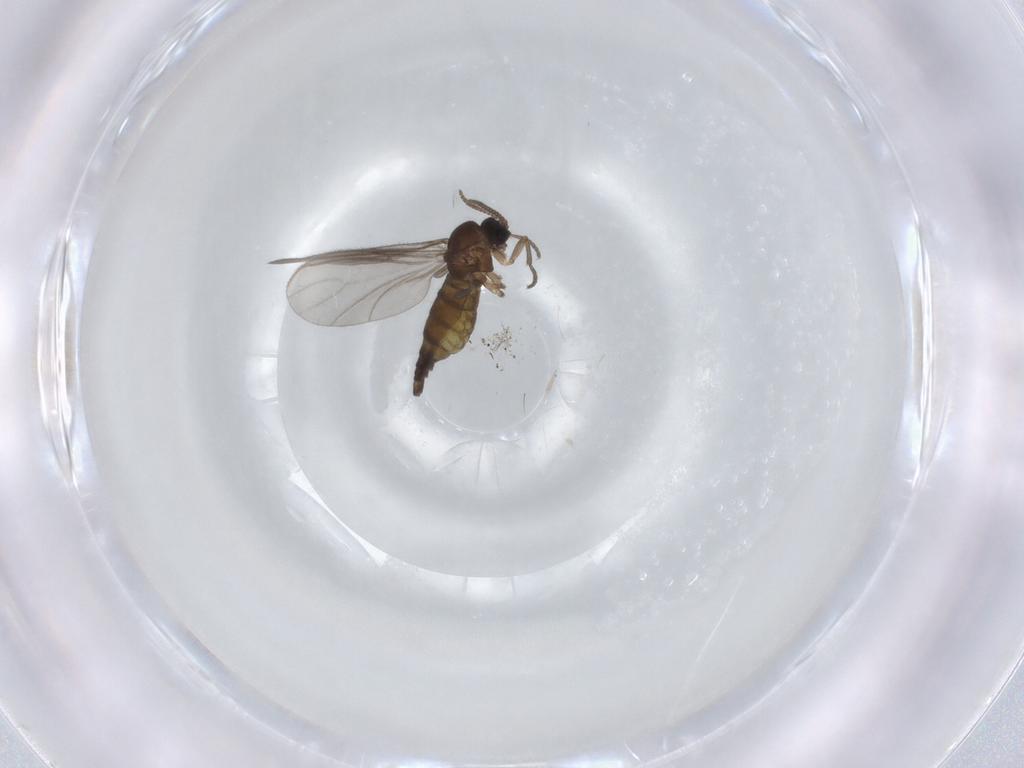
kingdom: Animalia
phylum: Arthropoda
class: Insecta
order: Diptera
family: Sciaridae
